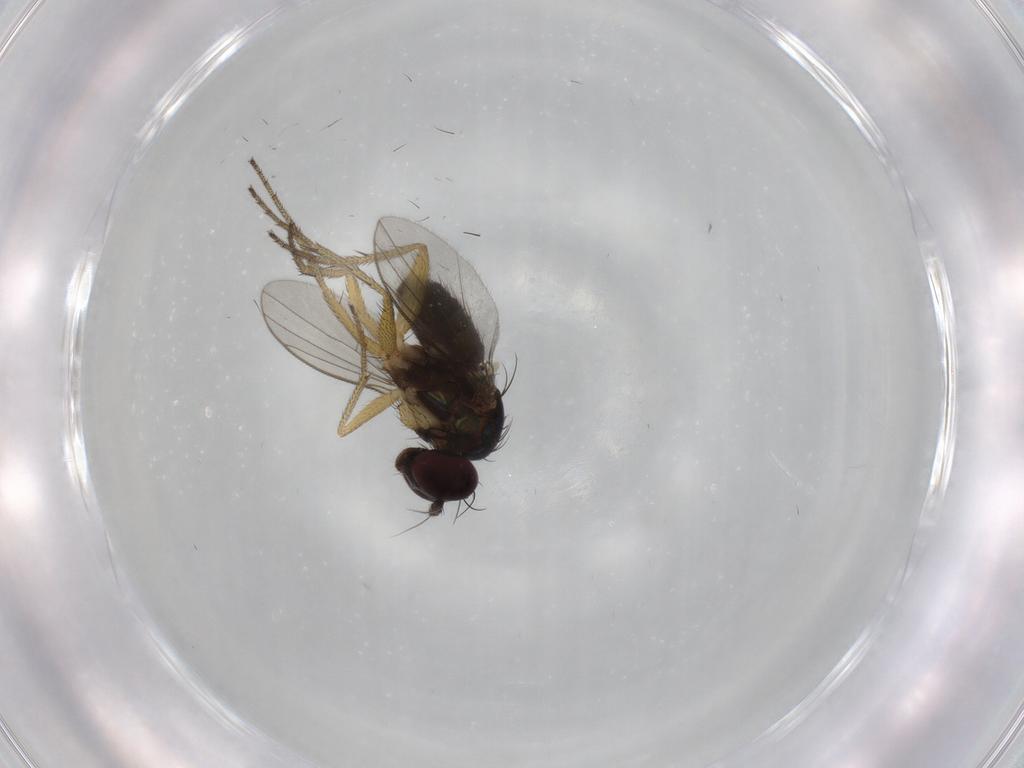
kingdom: Animalia
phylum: Arthropoda
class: Insecta
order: Diptera
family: Dolichopodidae
